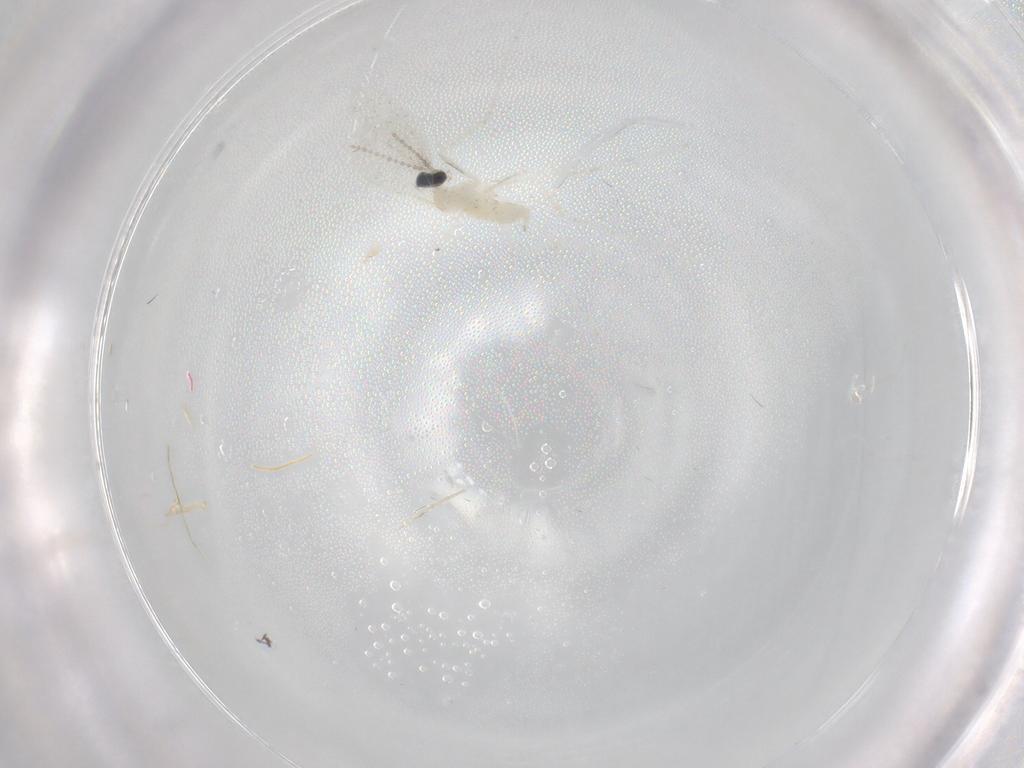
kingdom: Animalia
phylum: Arthropoda
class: Insecta
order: Diptera
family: Cecidomyiidae
